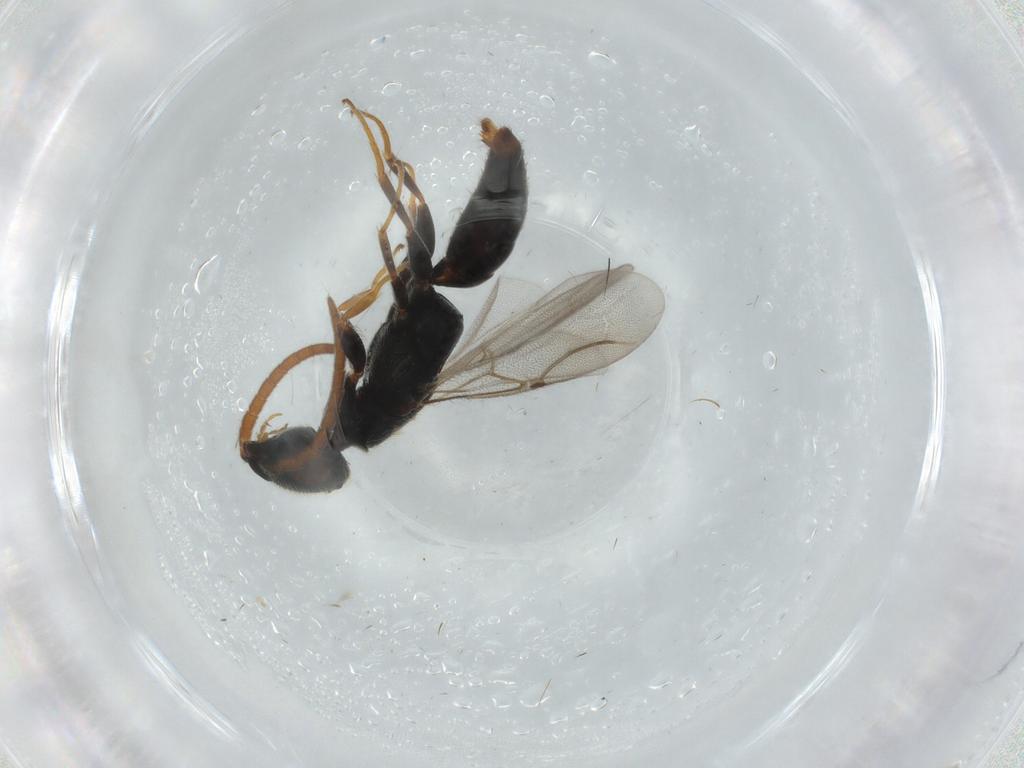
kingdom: Animalia
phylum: Arthropoda
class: Insecta
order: Hymenoptera
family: Bethylidae
